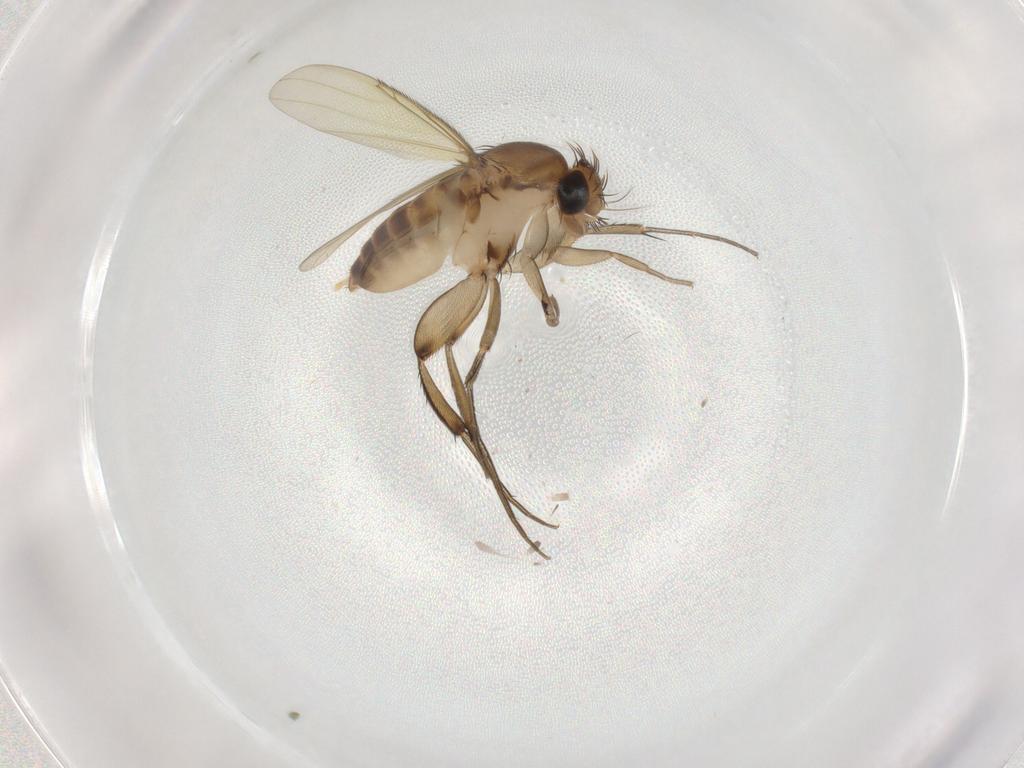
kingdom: Animalia
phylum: Arthropoda
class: Insecta
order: Diptera
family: Phoridae
